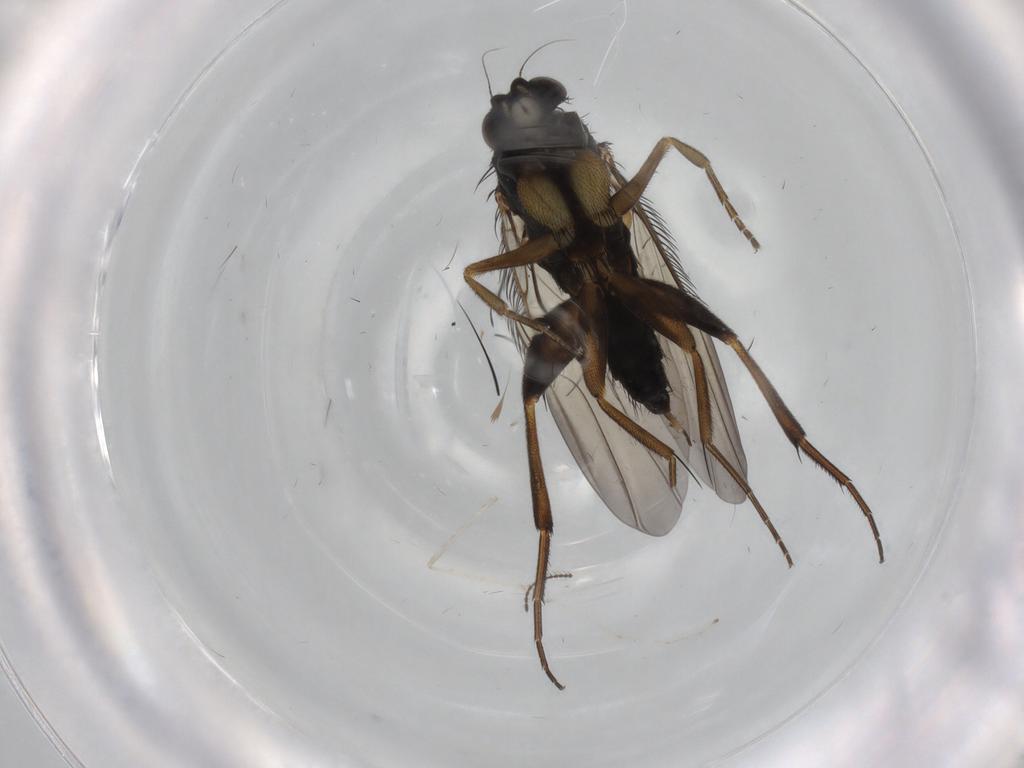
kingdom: Animalia
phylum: Arthropoda
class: Insecta
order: Diptera
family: Phoridae
